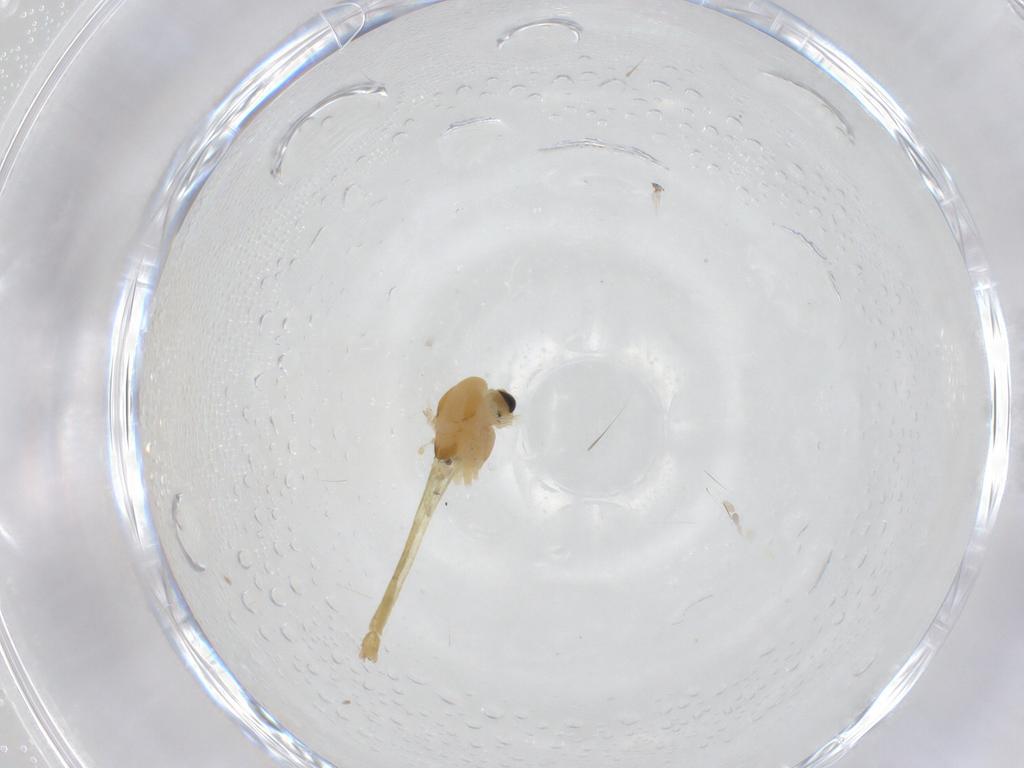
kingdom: Animalia
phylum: Arthropoda
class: Insecta
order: Diptera
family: Chironomidae
